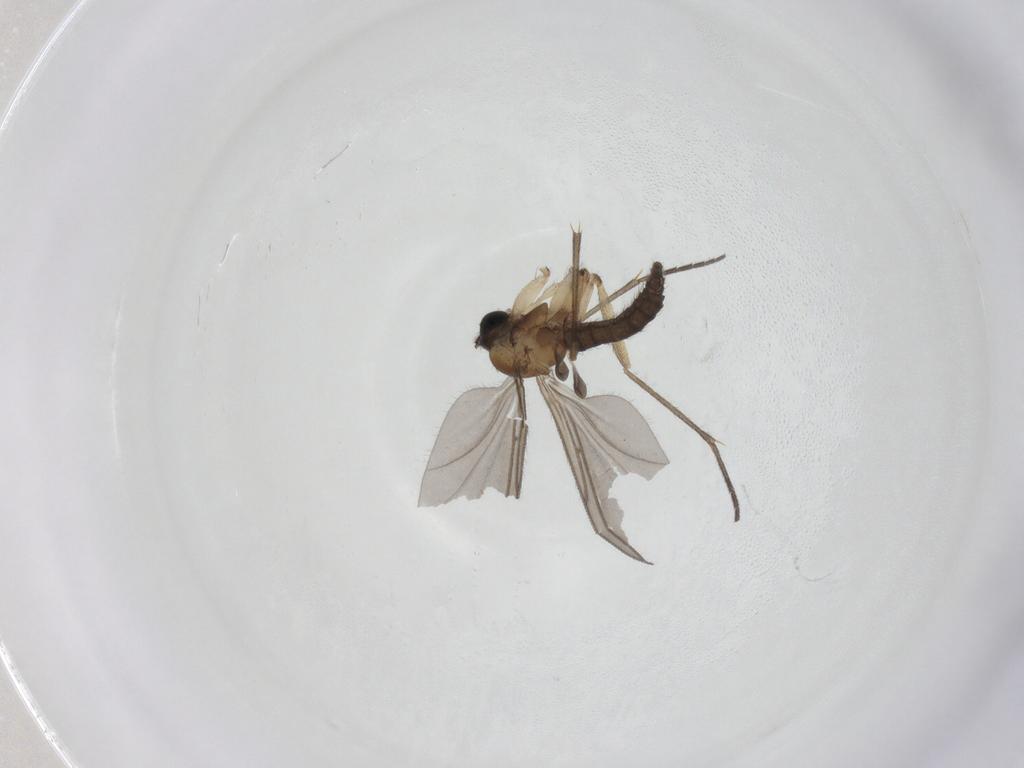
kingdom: Animalia
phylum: Arthropoda
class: Insecta
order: Diptera
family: Sciaridae
